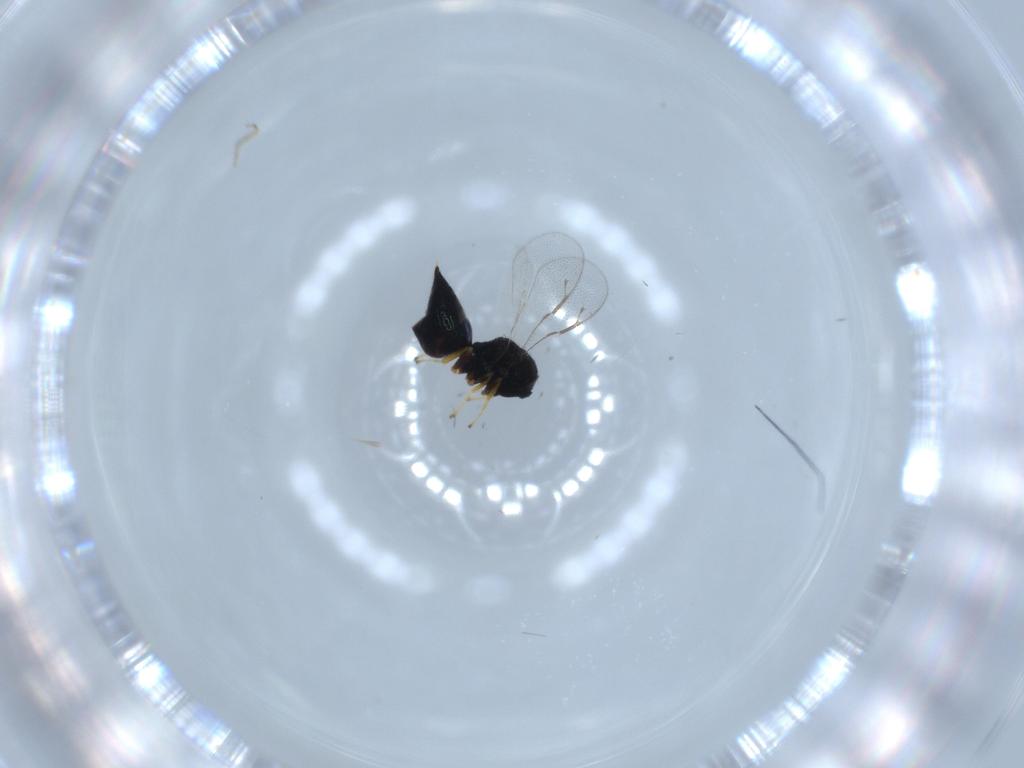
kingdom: Animalia
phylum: Arthropoda
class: Insecta
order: Hymenoptera
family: Pteromalidae
